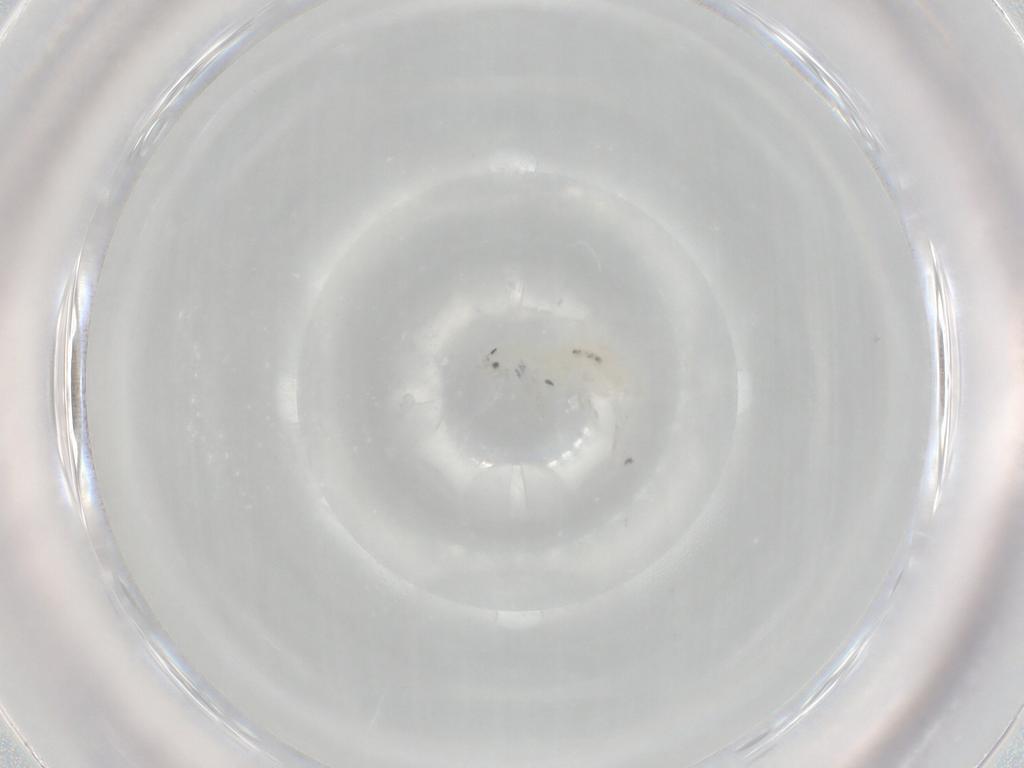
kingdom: Animalia
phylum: Arthropoda
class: Collembola
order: Entomobryomorpha
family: Entomobryidae
